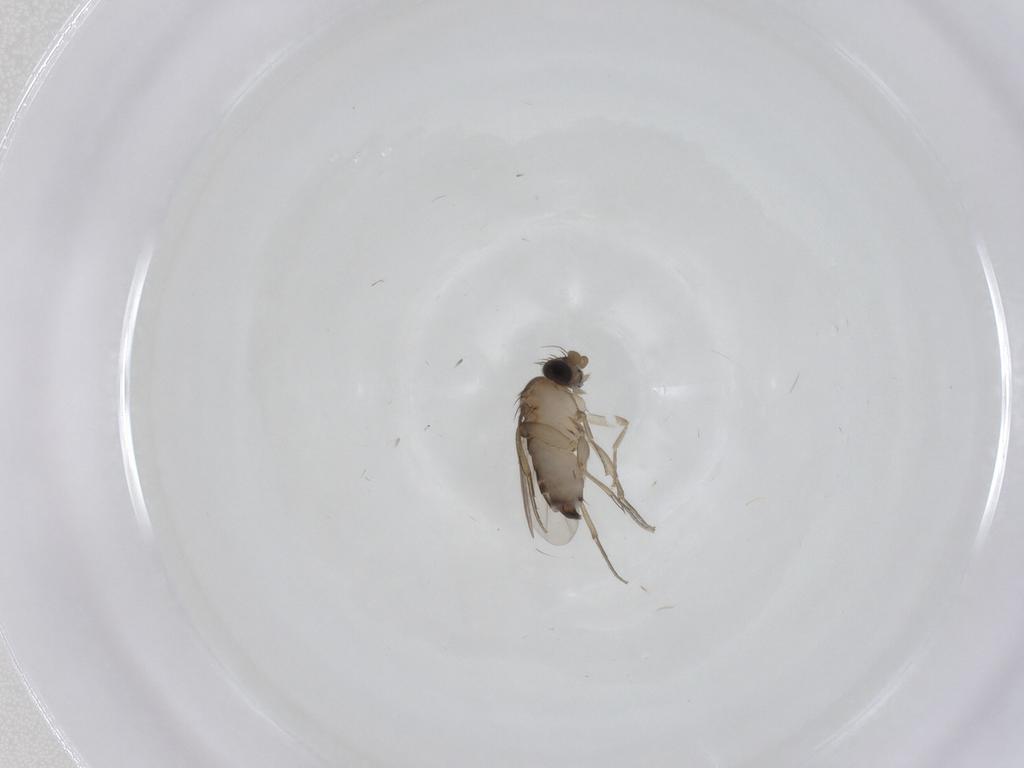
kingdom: Animalia
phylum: Arthropoda
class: Insecta
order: Diptera
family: Phoridae
